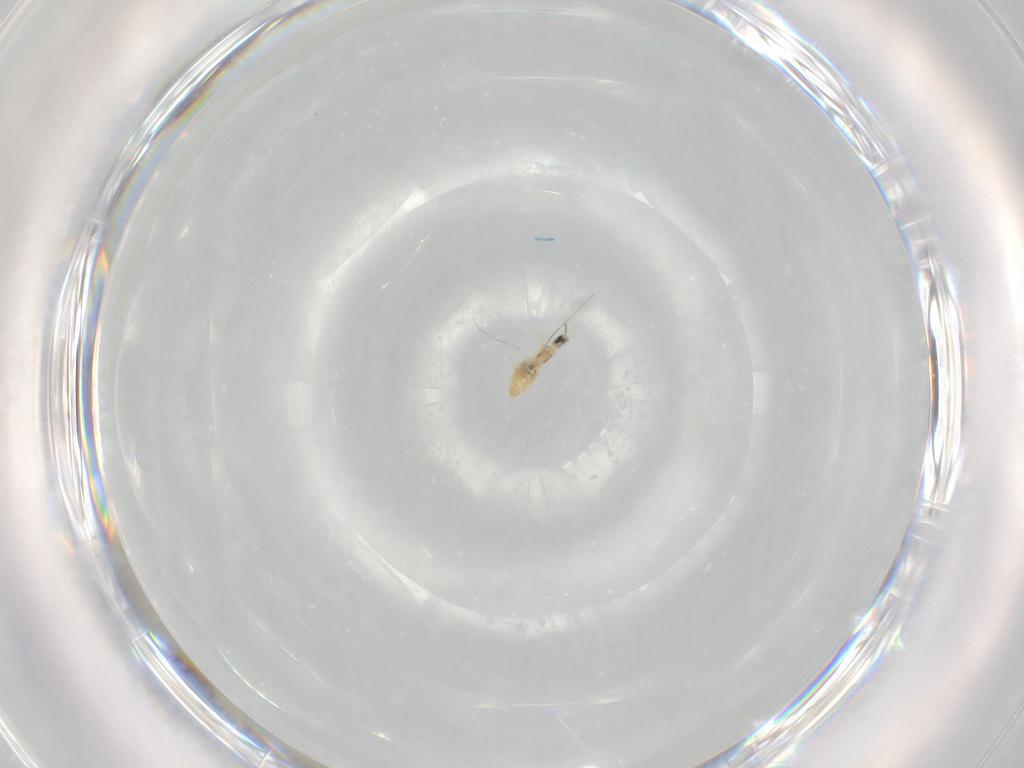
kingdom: Animalia
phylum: Arthropoda
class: Insecta
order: Diptera
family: Cecidomyiidae
